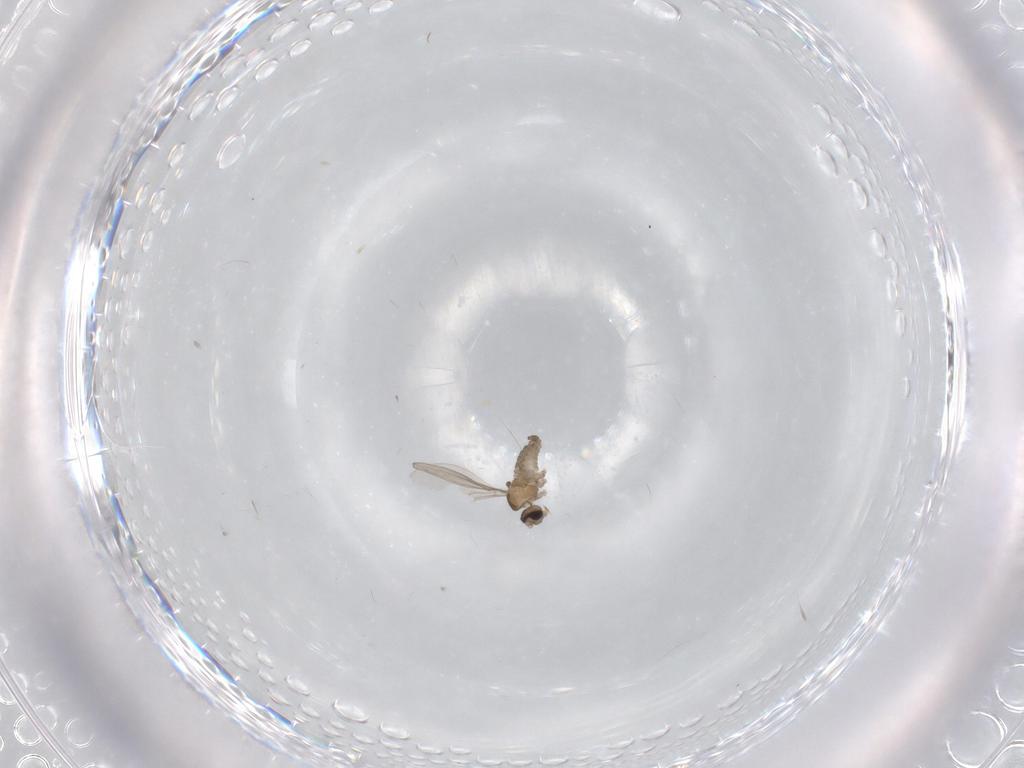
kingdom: Animalia
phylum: Arthropoda
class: Insecta
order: Diptera
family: Cecidomyiidae
